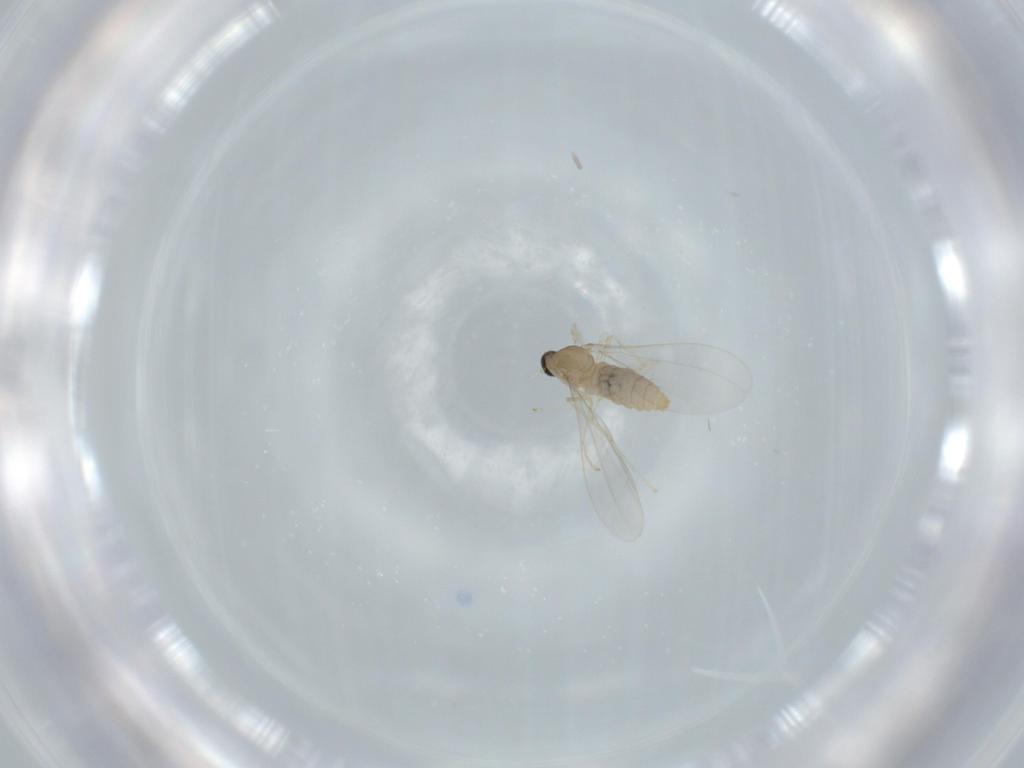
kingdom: Animalia
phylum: Arthropoda
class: Insecta
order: Diptera
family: Cecidomyiidae
